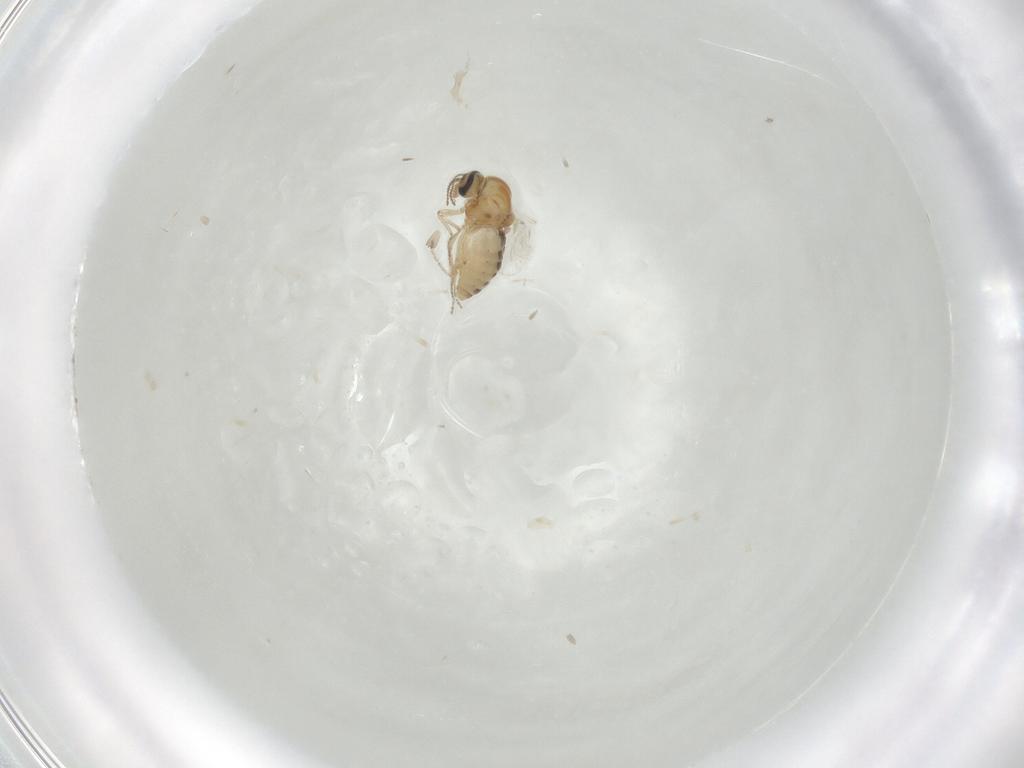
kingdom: Animalia
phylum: Arthropoda
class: Insecta
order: Diptera
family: Ceratopogonidae
